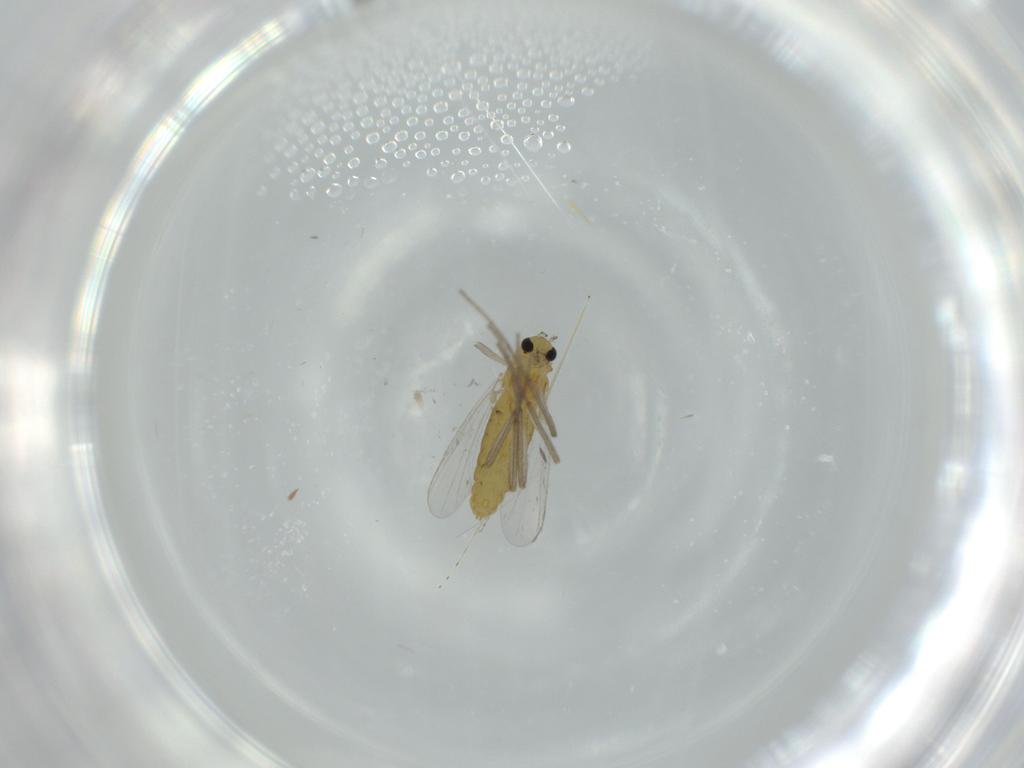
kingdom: Animalia
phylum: Arthropoda
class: Insecta
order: Diptera
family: Chironomidae
